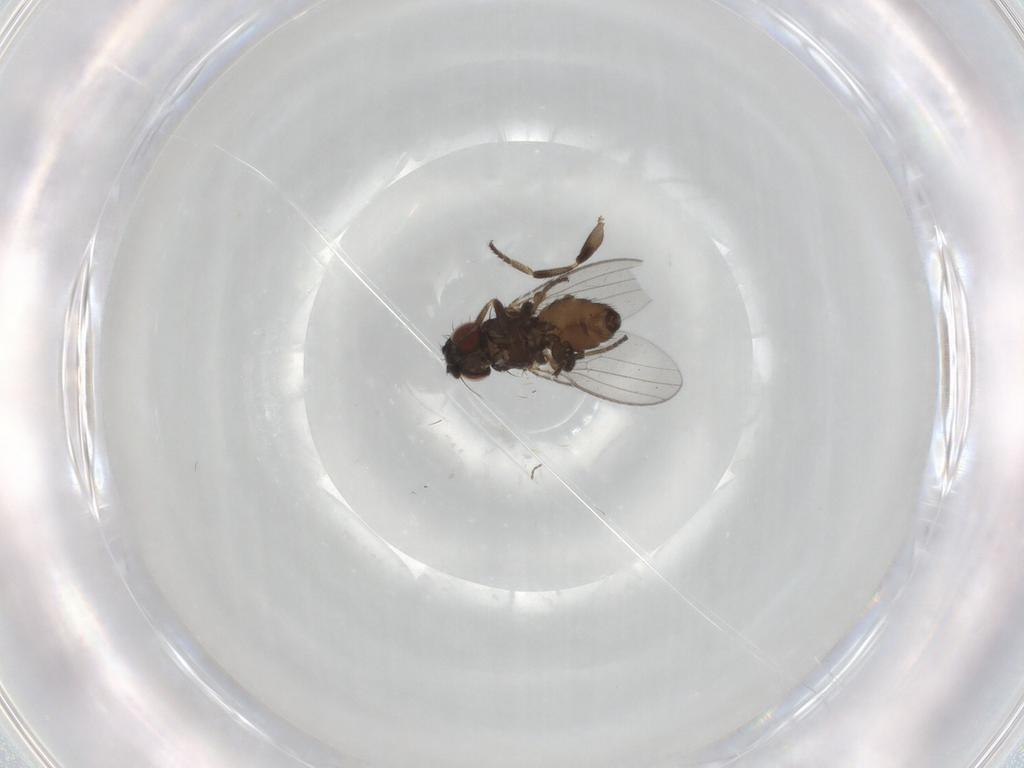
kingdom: Animalia
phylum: Arthropoda
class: Insecta
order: Diptera
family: Milichiidae
